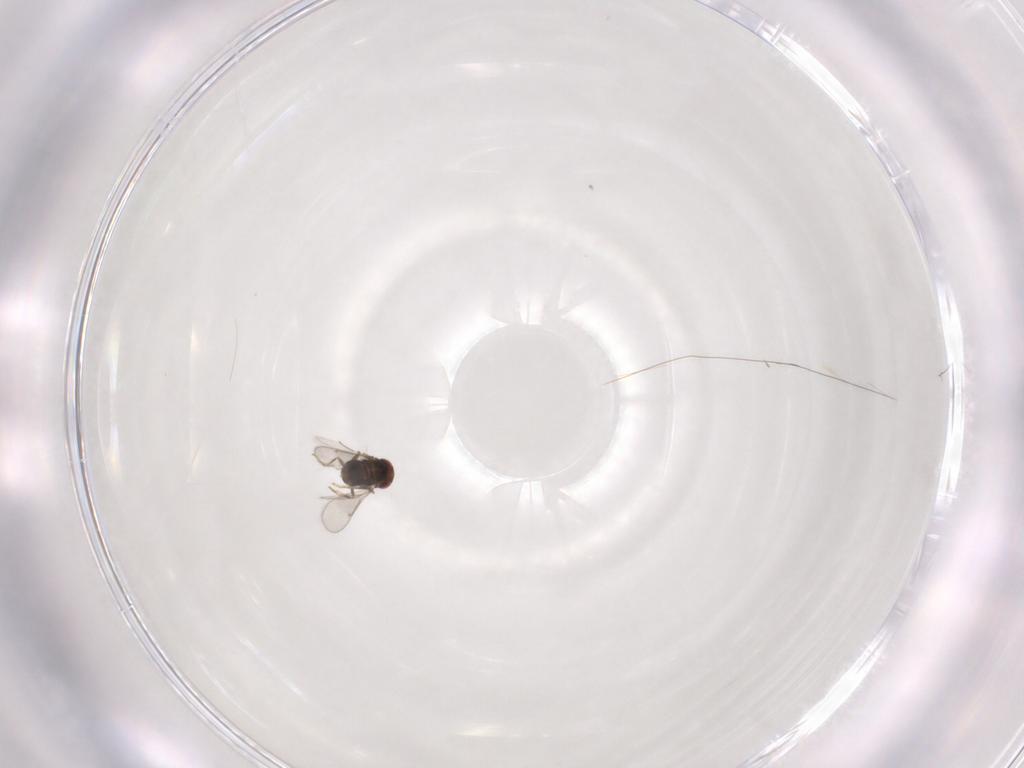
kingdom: Animalia
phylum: Arthropoda
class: Insecta
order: Hymenoptera
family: Aphelinidae
